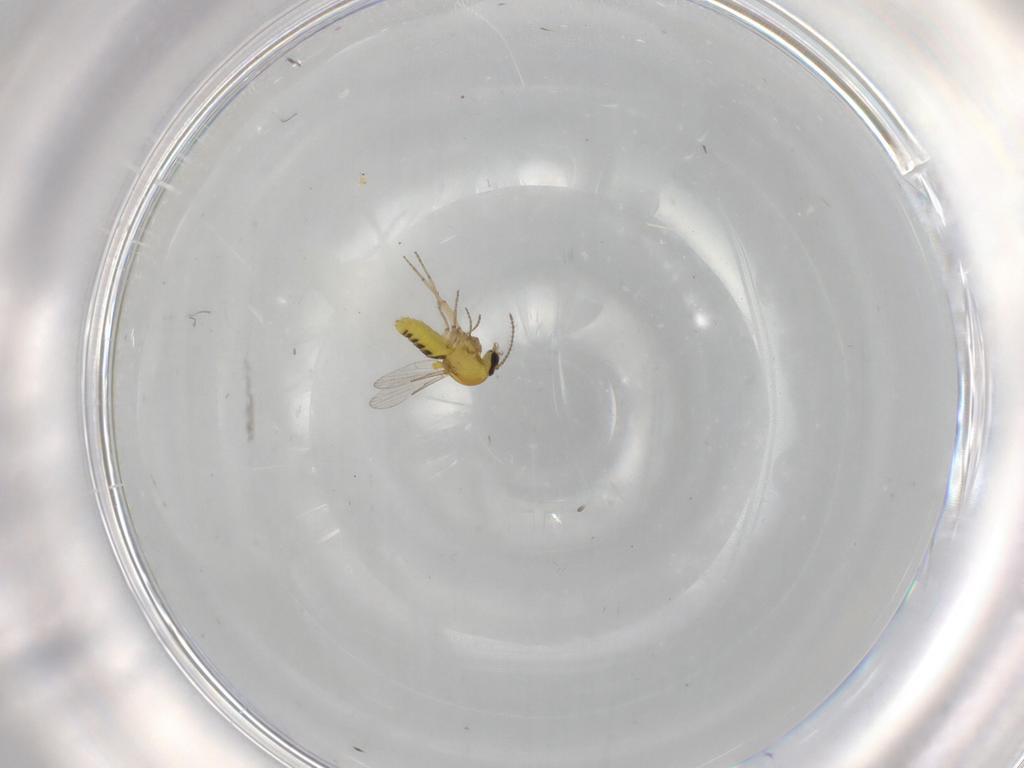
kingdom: Animalia
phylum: Arthropoda
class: Insecta
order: Diptera
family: Ceratopogonidae
